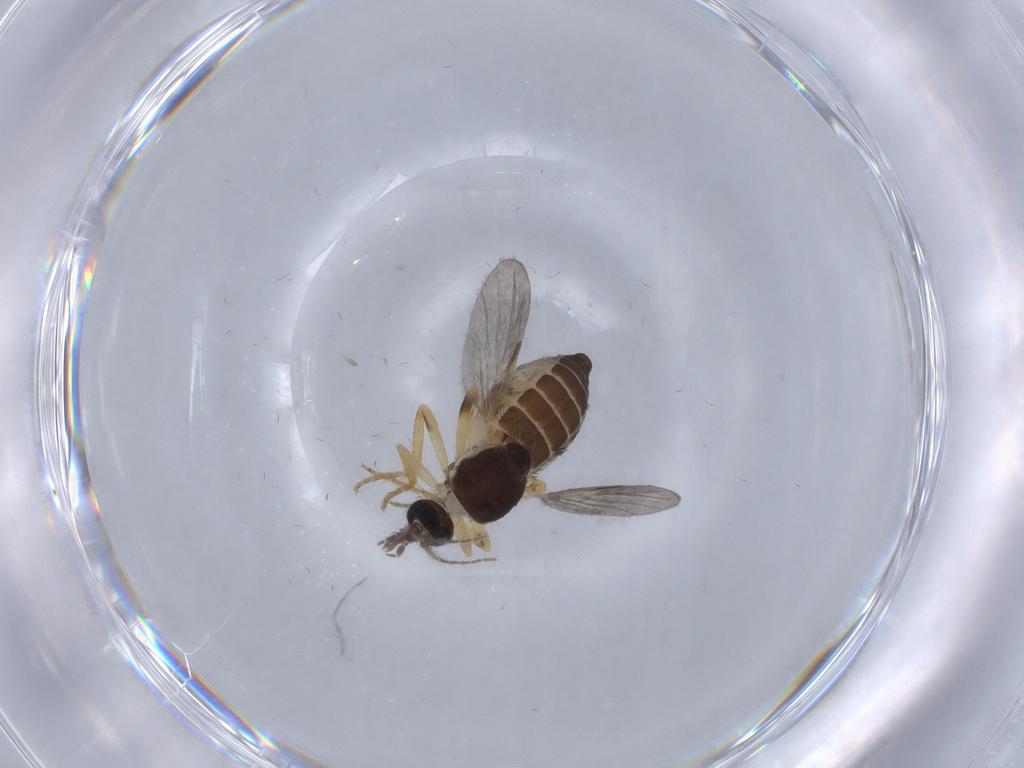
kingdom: Animalia
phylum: Arthropoda
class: Insecta
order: Diptera
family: Ceratopogonidae
